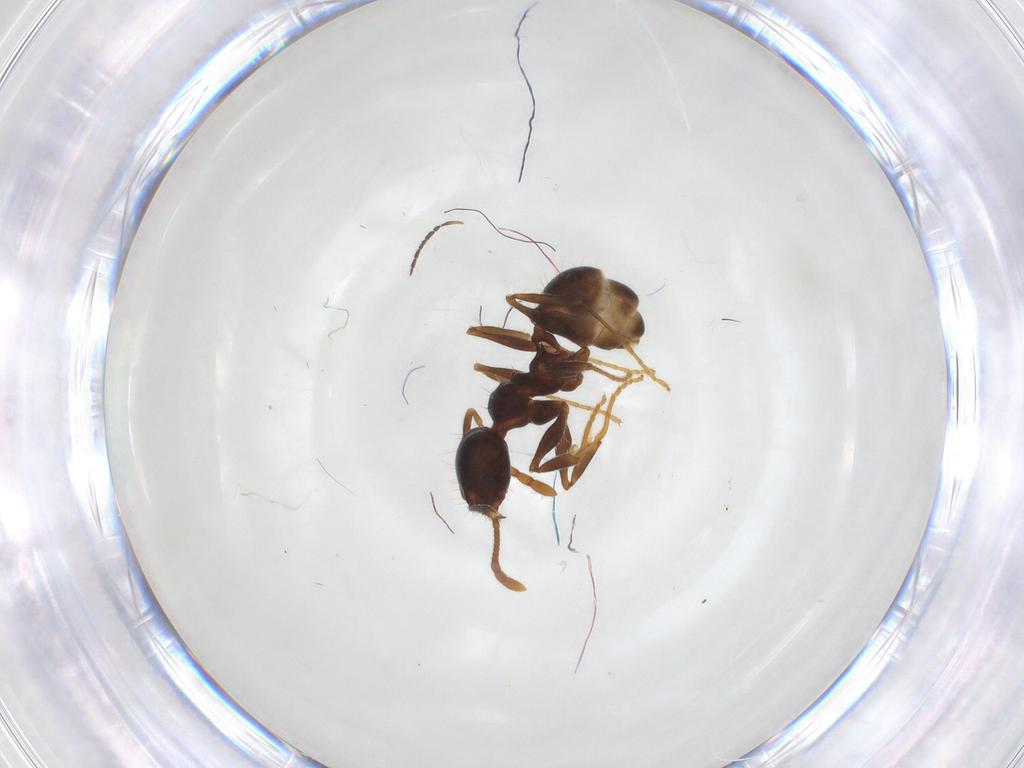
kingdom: Animalia
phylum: Arthropoda
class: Insecta
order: Hymenoptera
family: Formicidae
